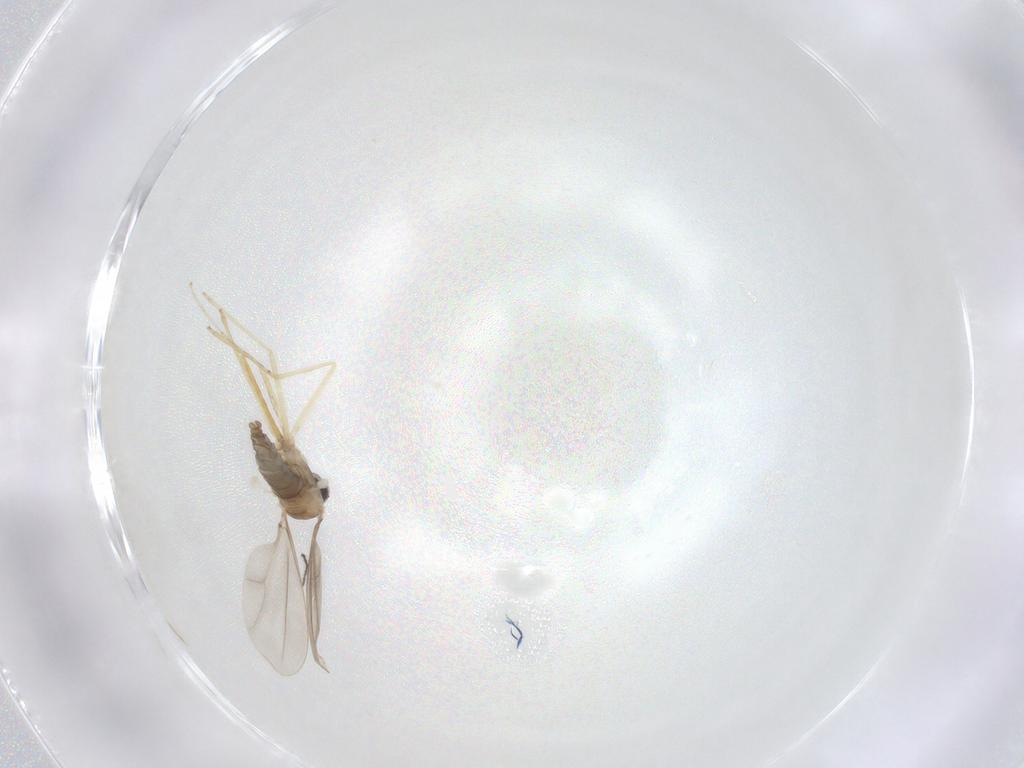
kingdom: Animalia
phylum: Arthropoda
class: Insecta
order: Diptera
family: Cecidomyiidae
